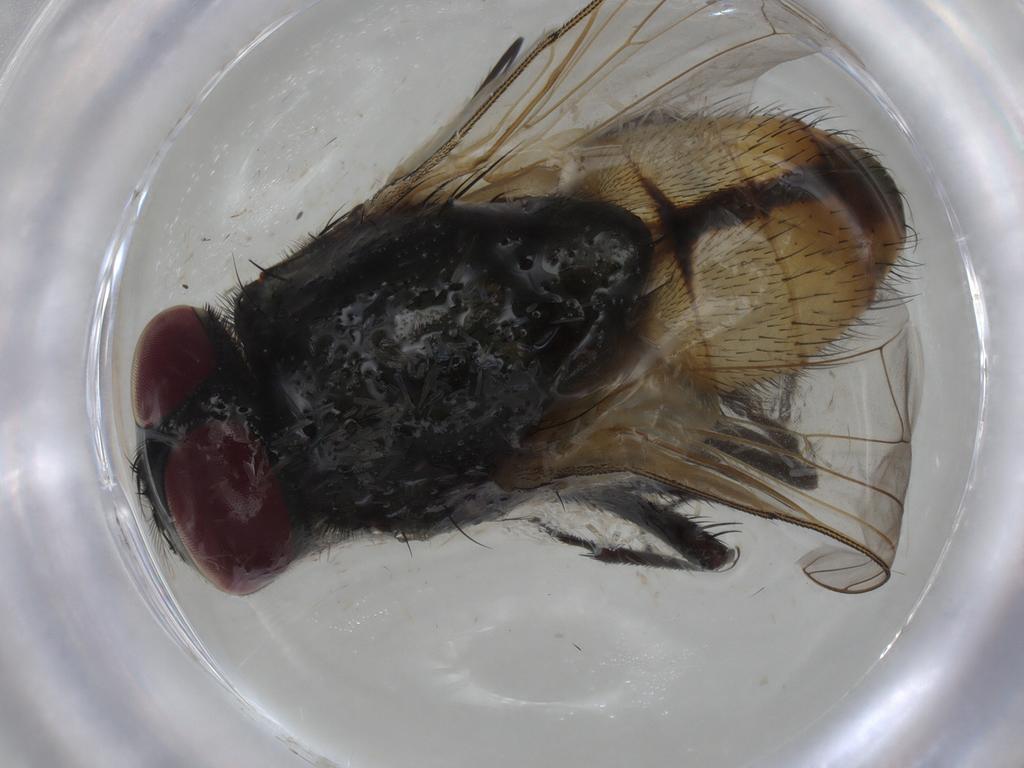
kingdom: Animalia
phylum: Arthropoda
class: Insecta
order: Diptera
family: Muscidae
